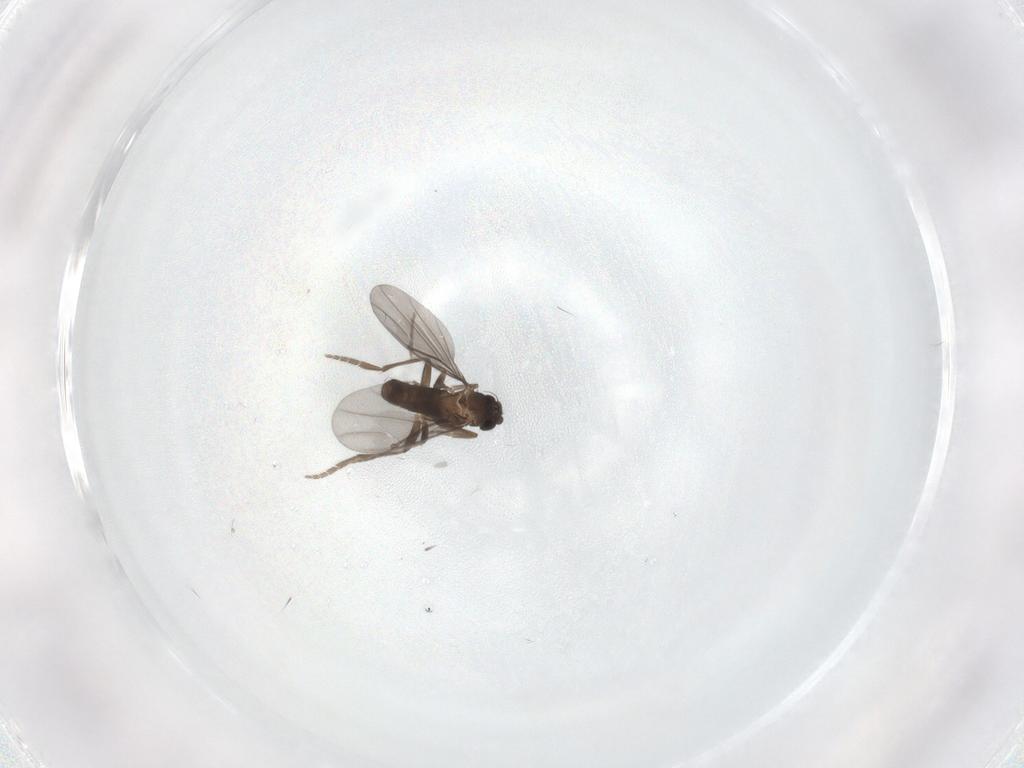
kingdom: Animalia
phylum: Arthropoda
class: Insecta
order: Diptera
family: Psychodidae
